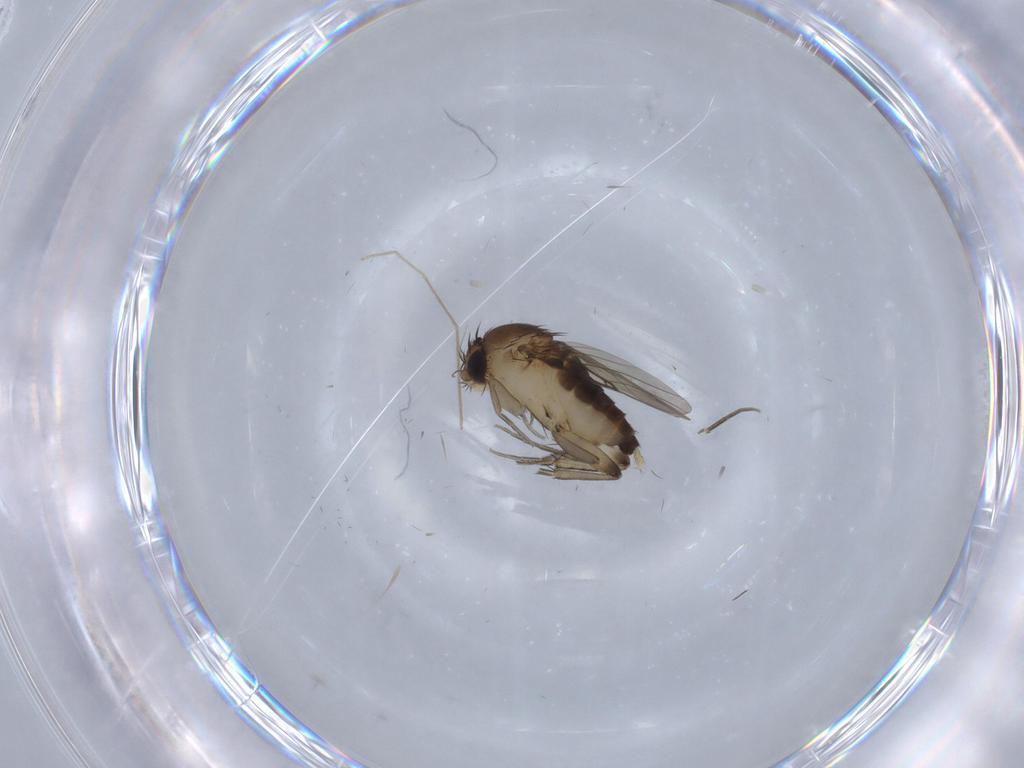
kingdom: Animalia
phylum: Arthropoda
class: Insecta
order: Diptera
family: Phoridae
